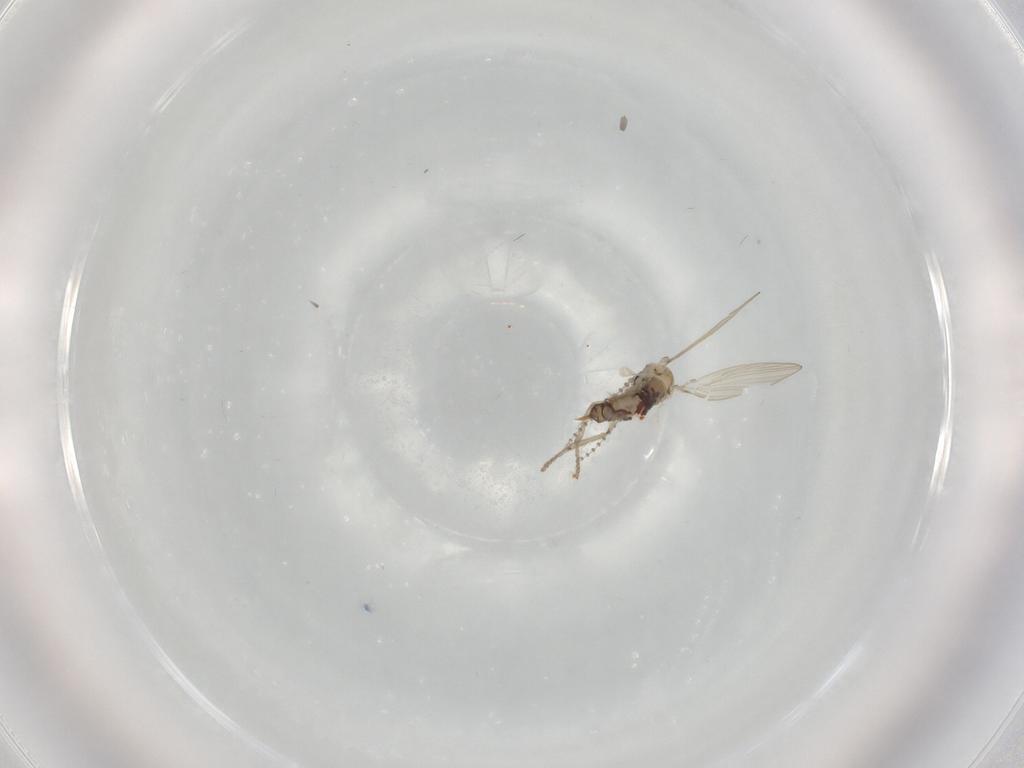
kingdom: Animalia
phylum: Arthropoda
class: Insecta
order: Diptera
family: Psychodidae
